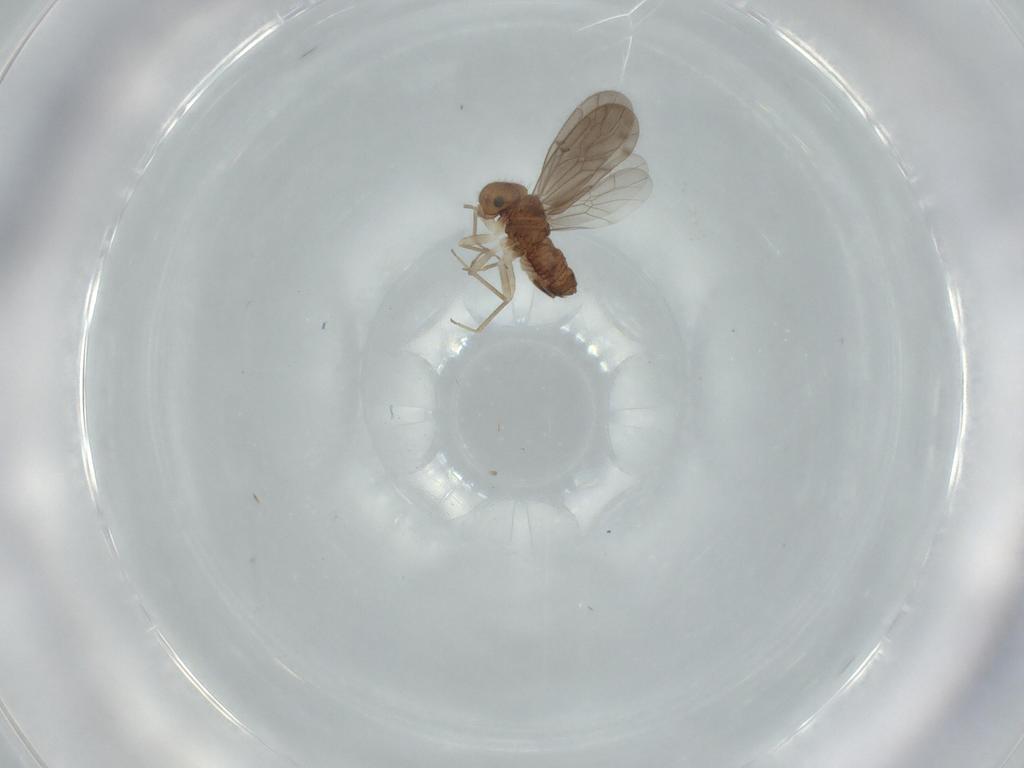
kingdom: Animalia
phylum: Arthropoda
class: Insecta
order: Psocodea
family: Ectopsocidae
